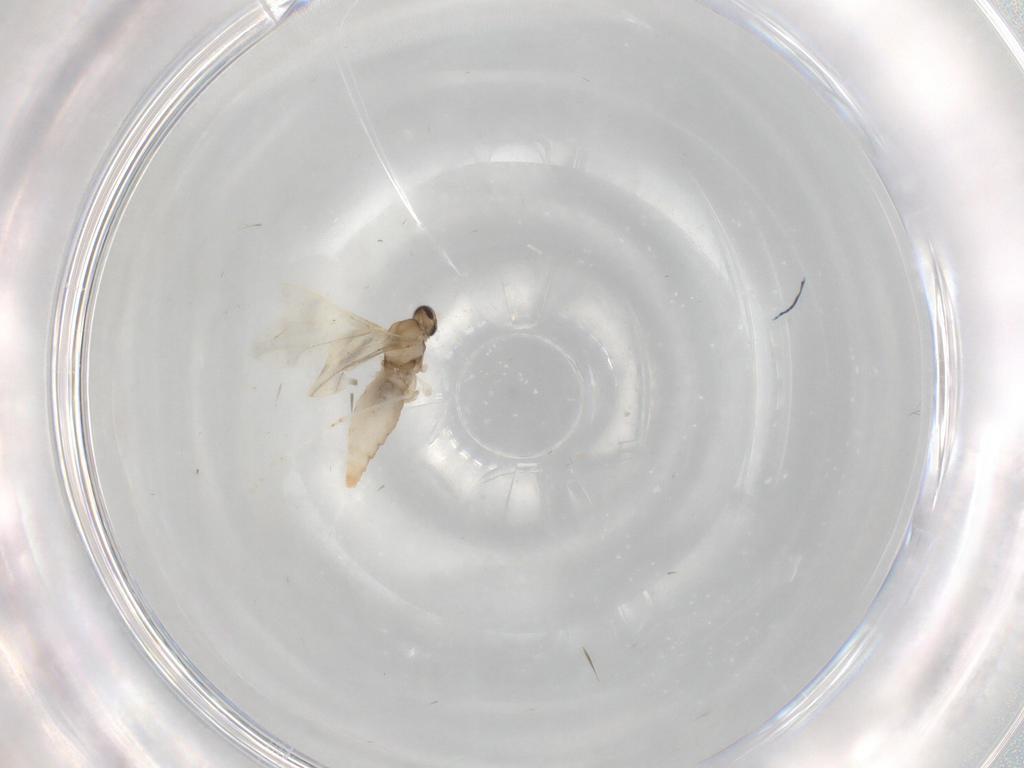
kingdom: Animalia
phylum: Arthropoda
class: Insecta
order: Diptera
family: Cecidomyiidae
